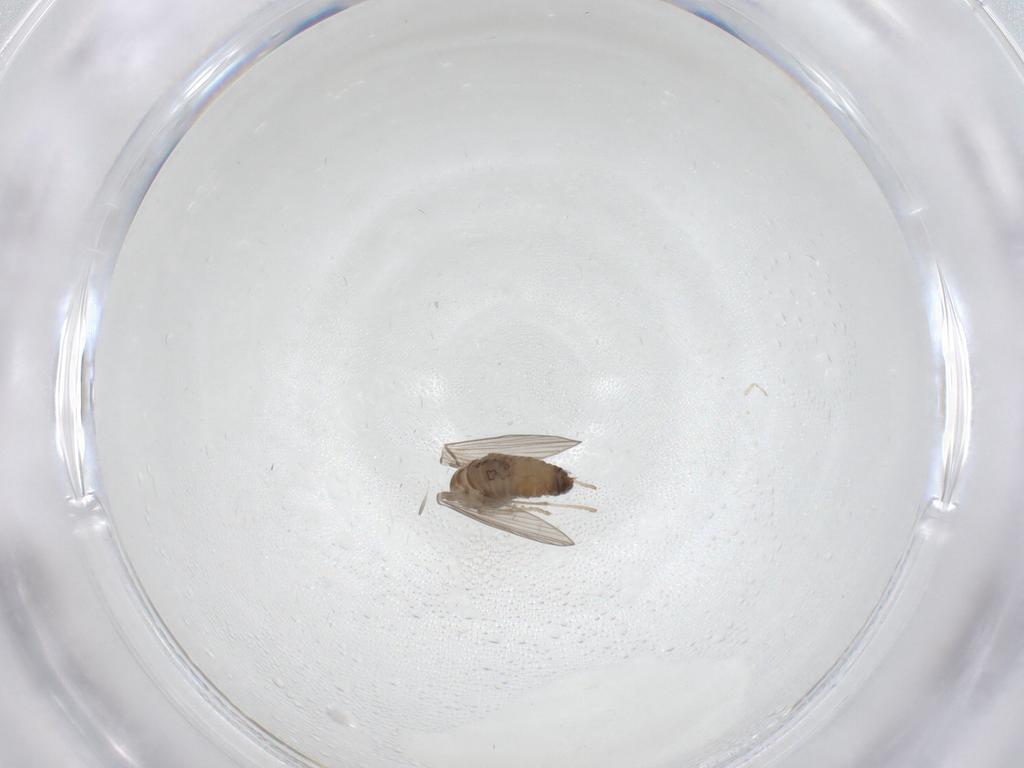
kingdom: Animalia
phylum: Arthropoda
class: Insecta
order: Diptera
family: Psychodidae
